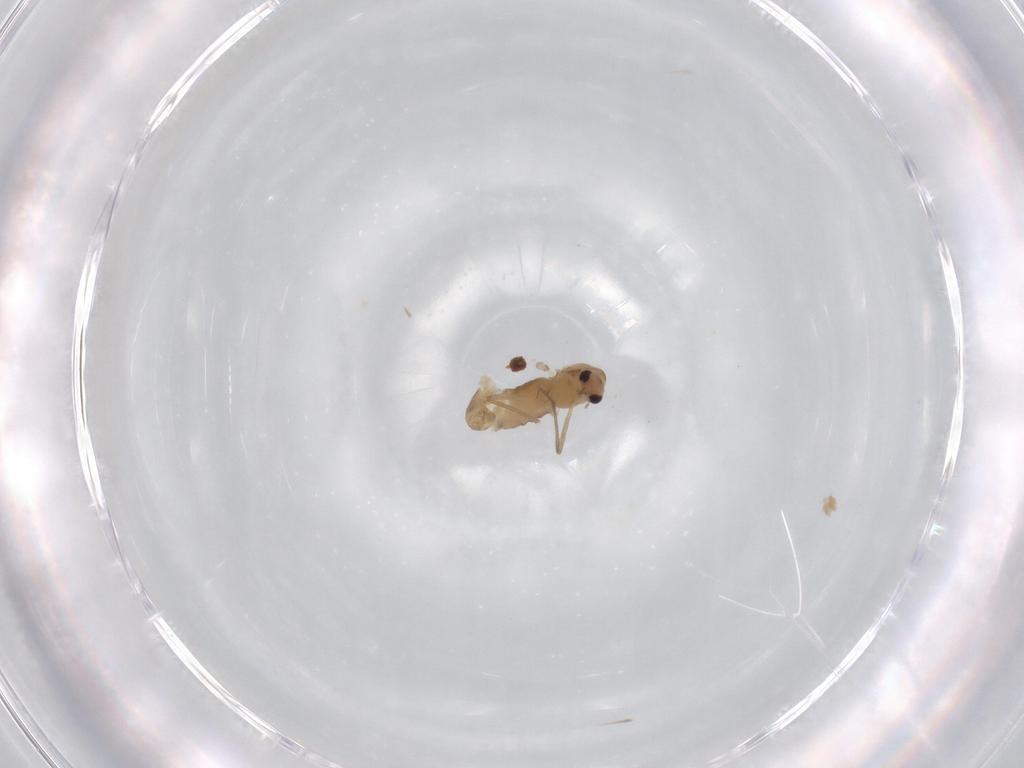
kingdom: Animalia
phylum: Arthropoda
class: Insecta
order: Diptera
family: Chironomidae
